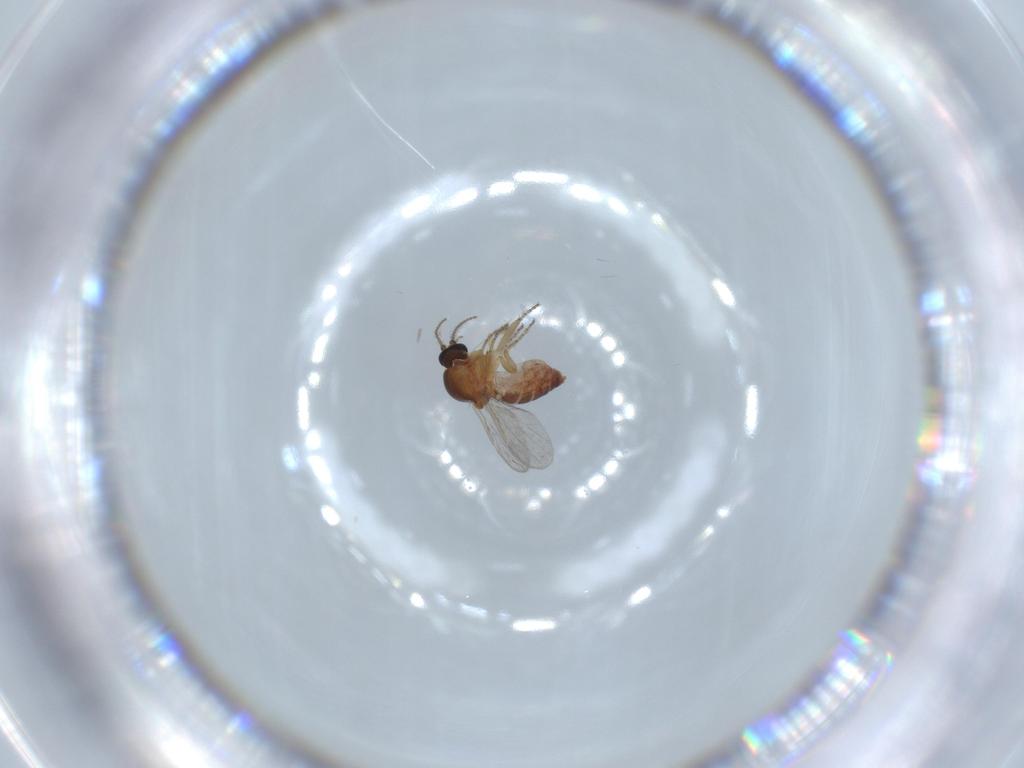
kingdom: Animalia
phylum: Arthropoda
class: Insecta
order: Diptera
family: Ceratopogonidae
